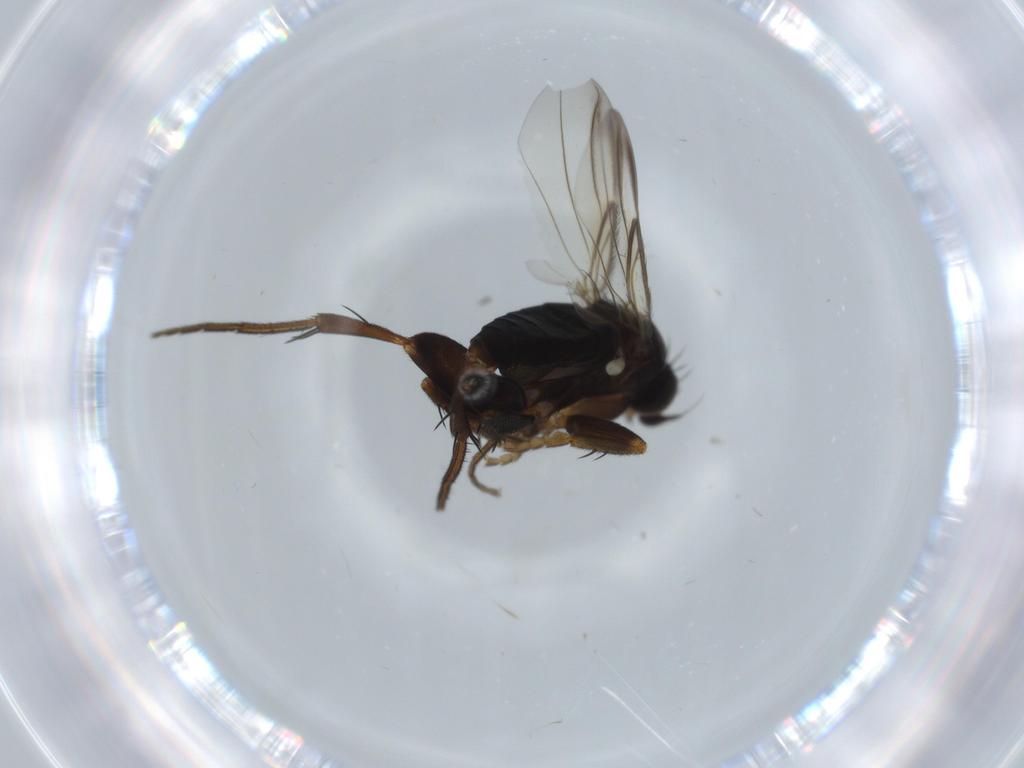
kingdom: Animalia
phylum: Arthropoda
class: Insecta
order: Diptera
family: Phoridae
